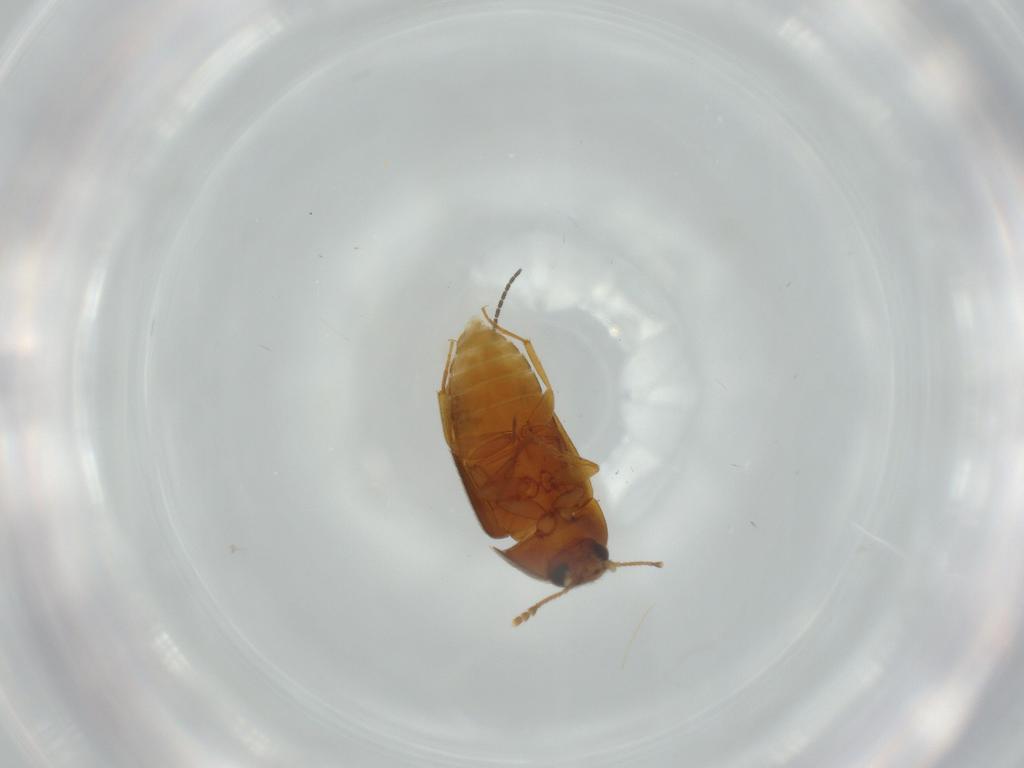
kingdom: Animalia
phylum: Arthropoda
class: Insecta
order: Coleoptera
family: Mycetophagidae
